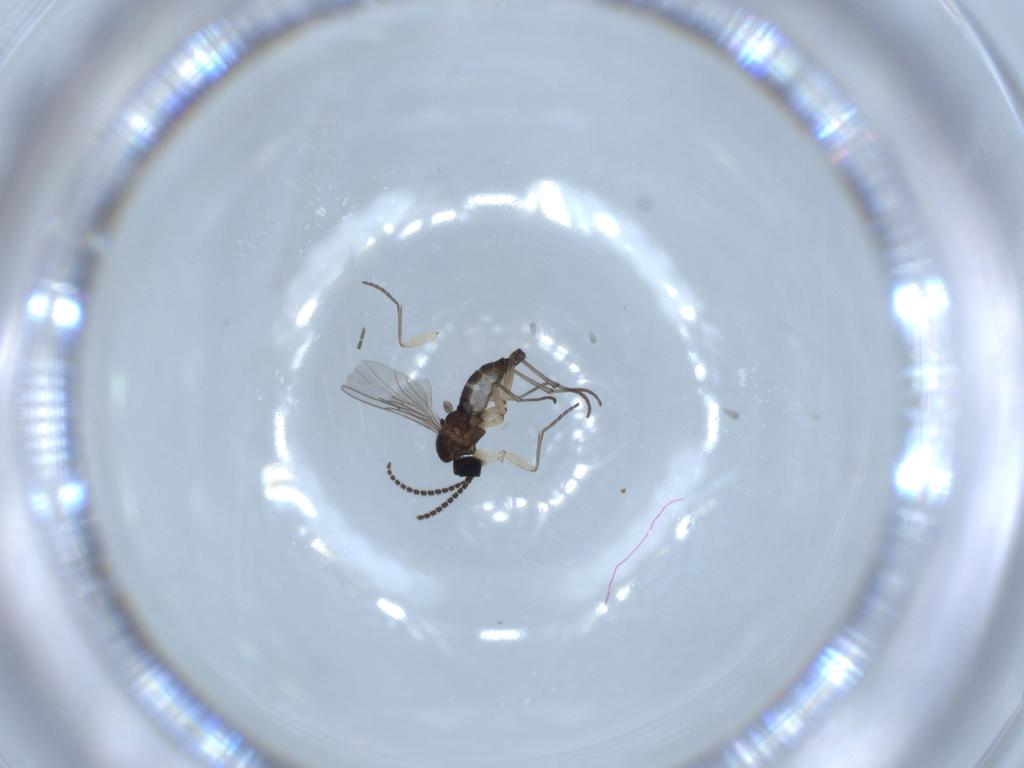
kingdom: Animalia
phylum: Arthropoda
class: Insecta
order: Diptera
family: Sciaridae
